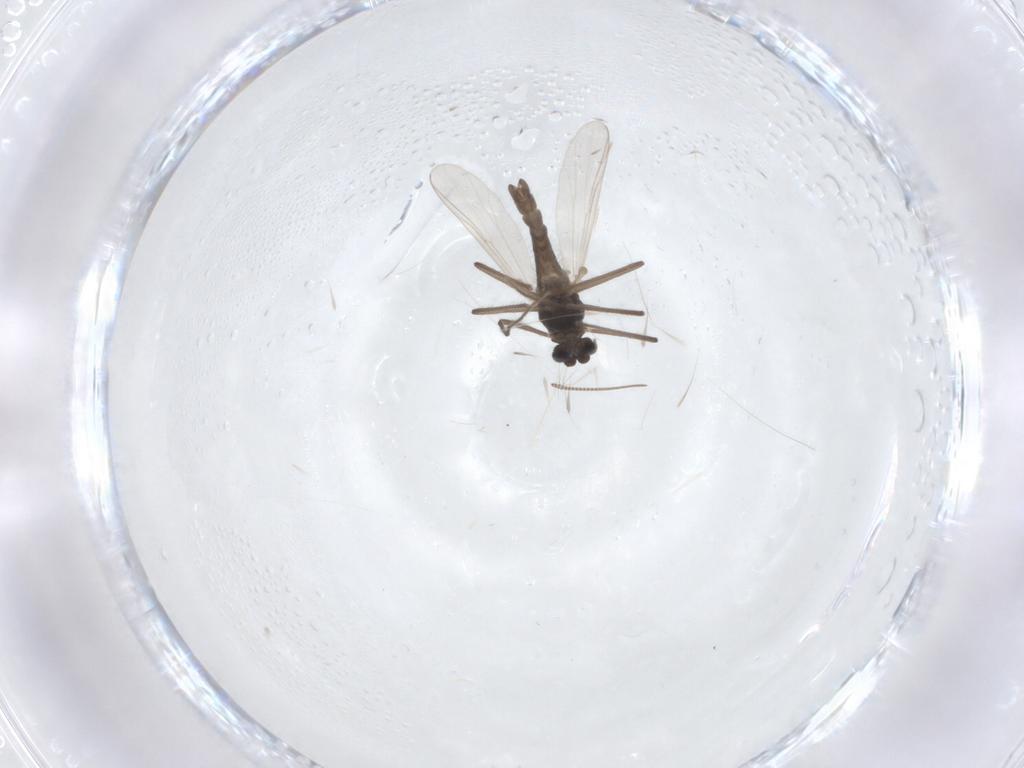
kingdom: Animalia
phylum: Arthropoda
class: Insecta
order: Diptera
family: Chironomidae
